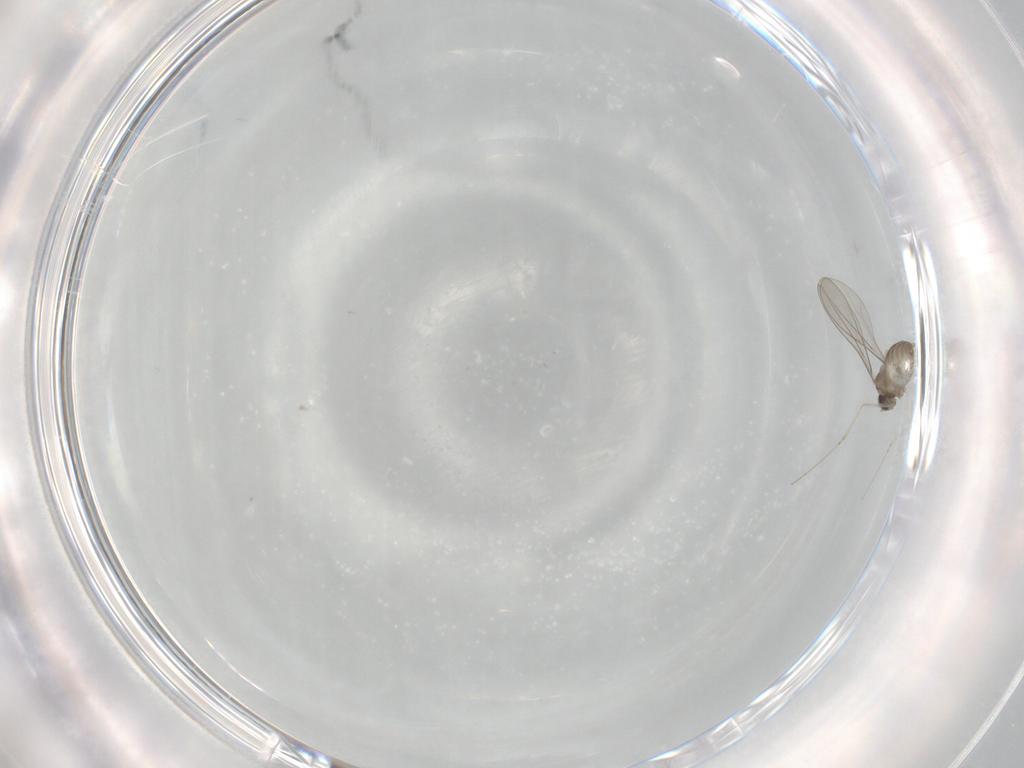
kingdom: Animalia
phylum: Arthropoda
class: Insecta
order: Diptera
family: Cecidomyiidae
